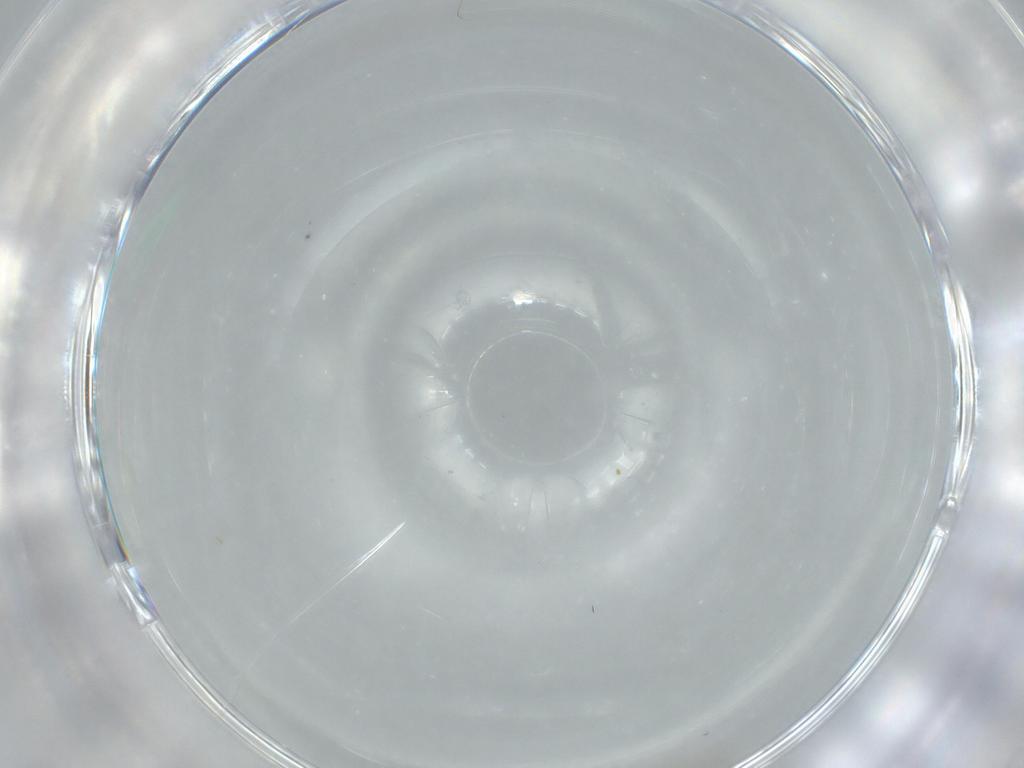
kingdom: Animalia
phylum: Arthropoda
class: Insecta
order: Diptera
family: Cecidomyiidae
